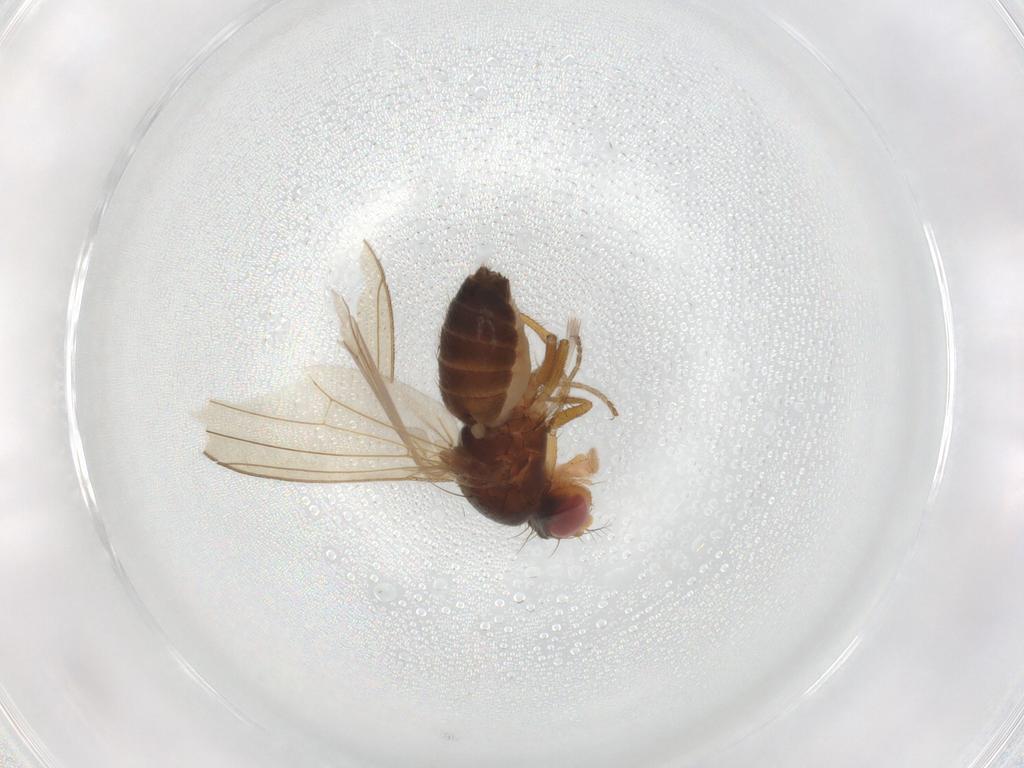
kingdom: Animalia
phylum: Arthropoda
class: Insecta
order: Diptera
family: Drosophilidae
